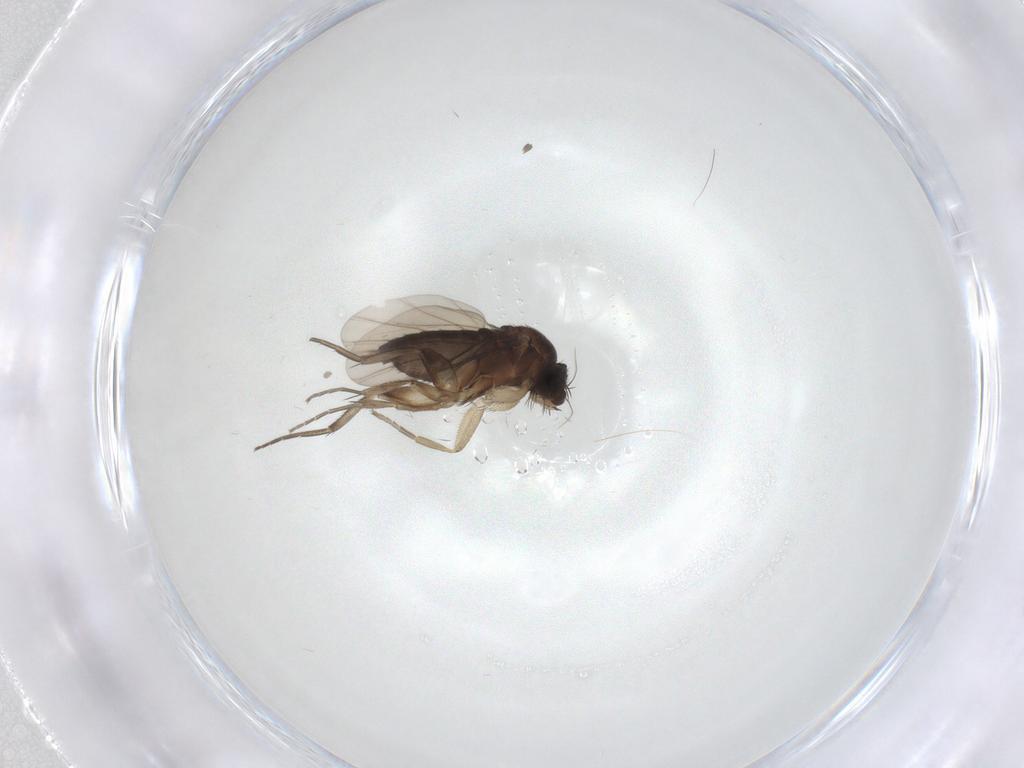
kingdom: Animalia
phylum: Arthropoda
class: Insecta
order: Diptera
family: Phoridae
